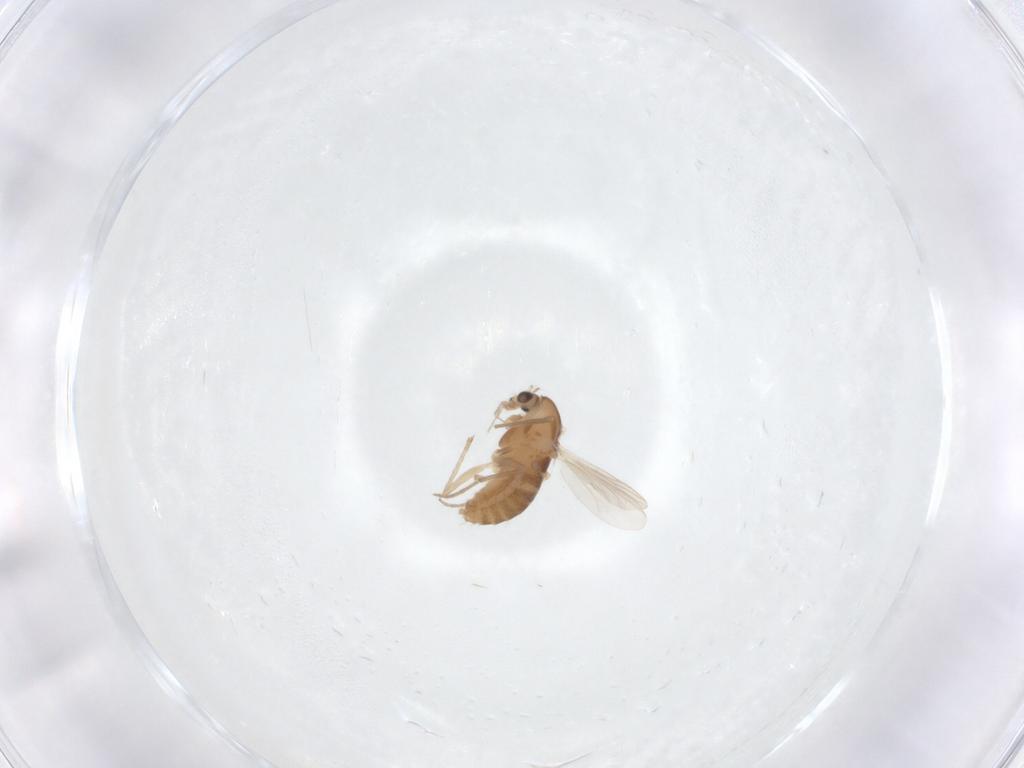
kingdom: Animalia
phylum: Arthropoda
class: Insecta
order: Diptera
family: Chironomidae
